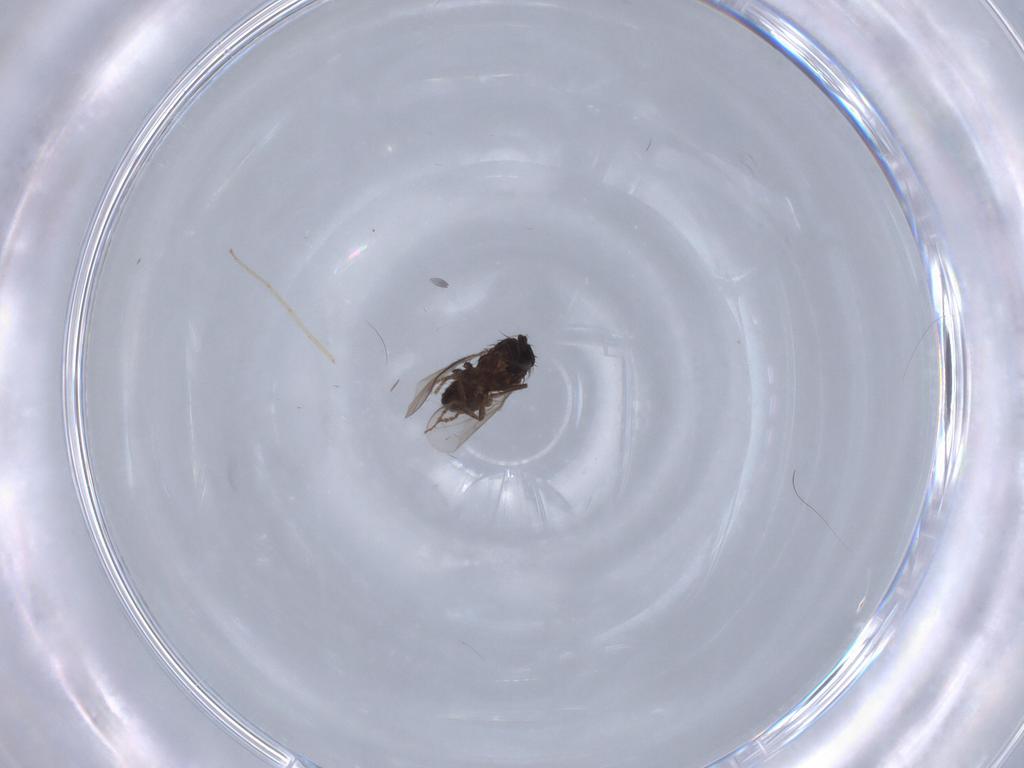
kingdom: Animalia
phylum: Arthropoda
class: Insecta
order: Diptera
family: Sciaridae
